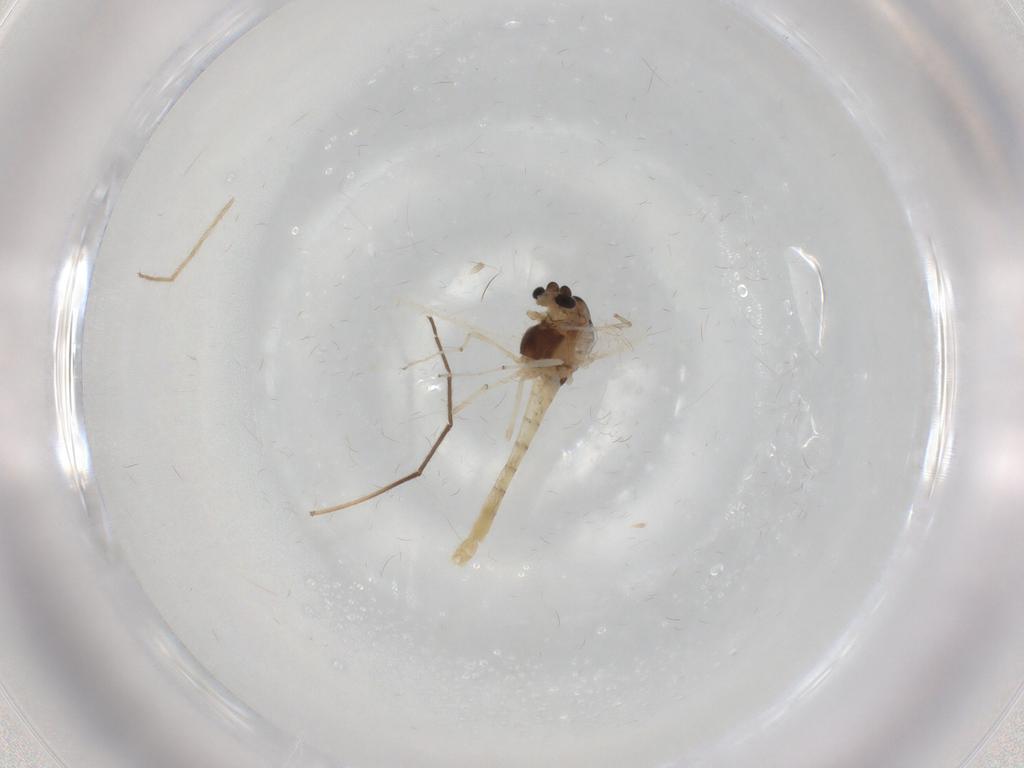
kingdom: Animalia
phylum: Arthropoda
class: Insecta
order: Diptera
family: Chironomidae
